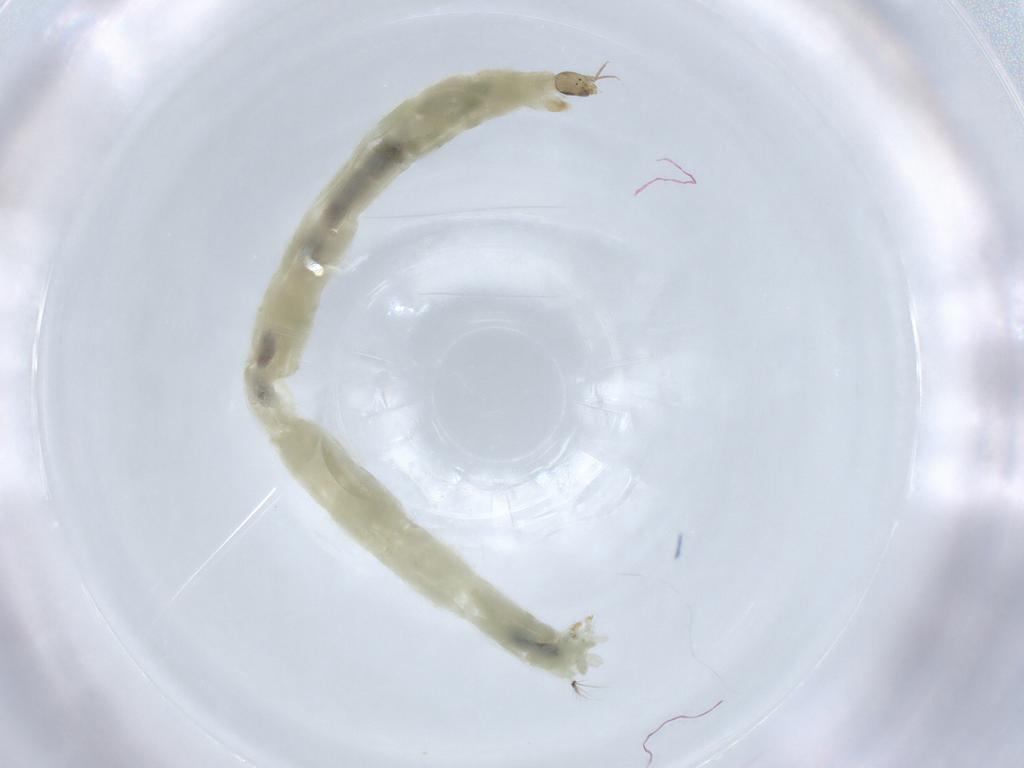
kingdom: Animalia
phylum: Arthropoda
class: Insecta
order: Diptera
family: Chironomidae
